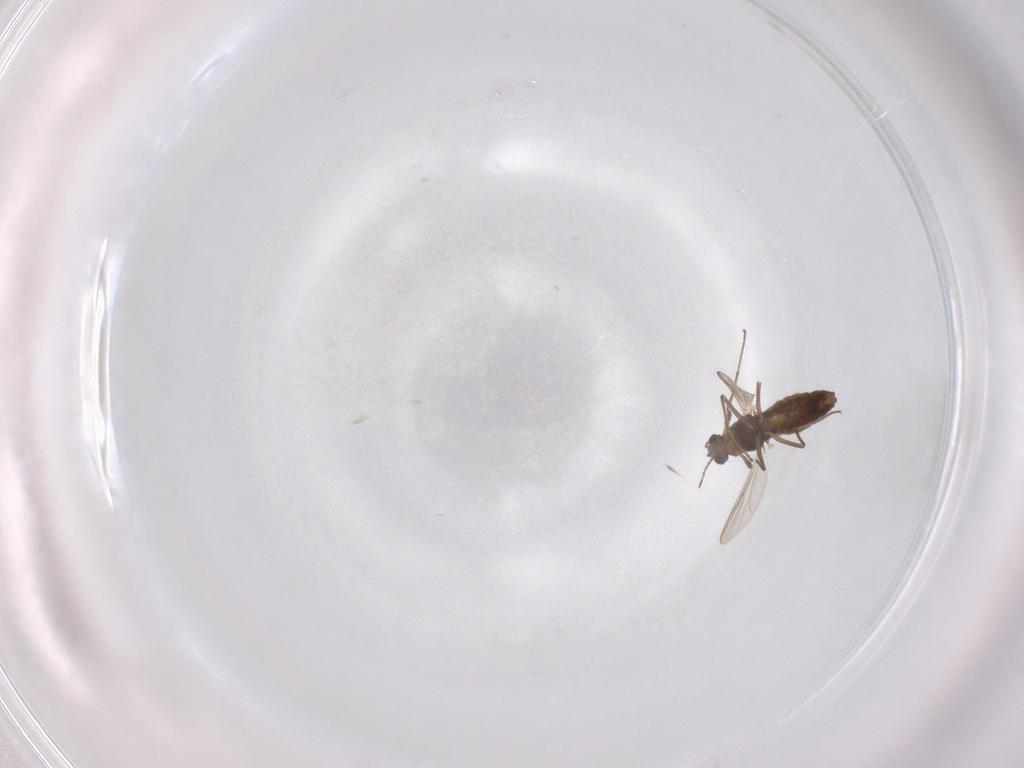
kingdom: Animalia
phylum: Arthropoda
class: Insecta
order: Diptera
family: Chironomidae
